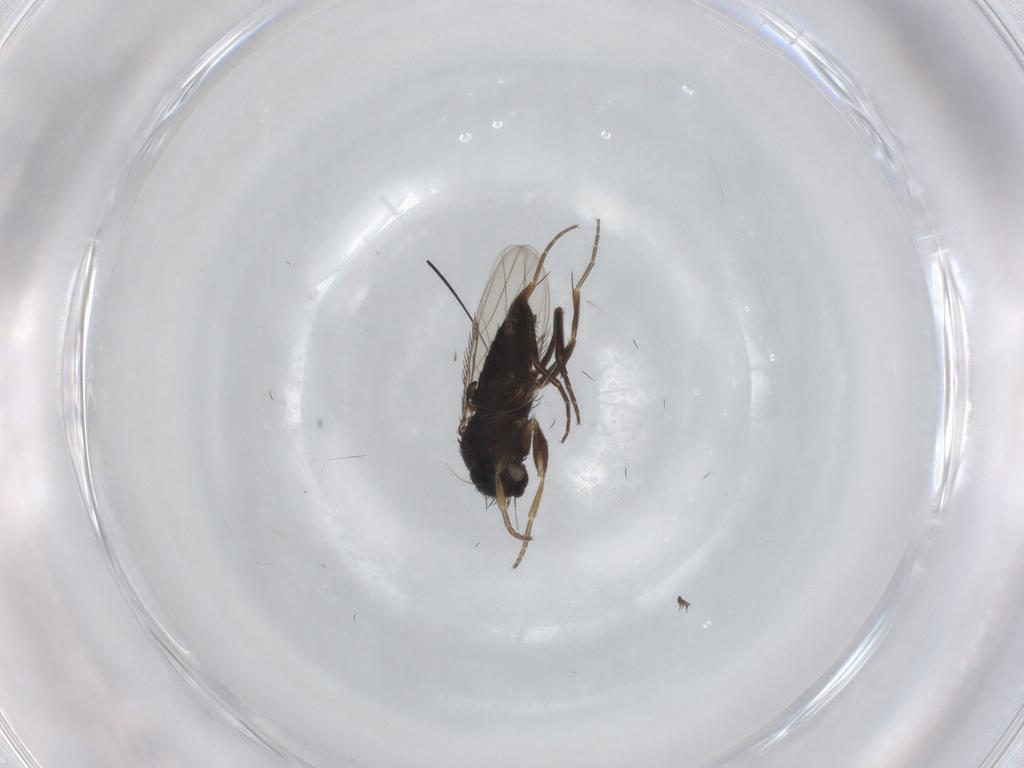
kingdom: Animalia
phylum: Arthropoda
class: Insecta
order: Diptera
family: Phoridae
